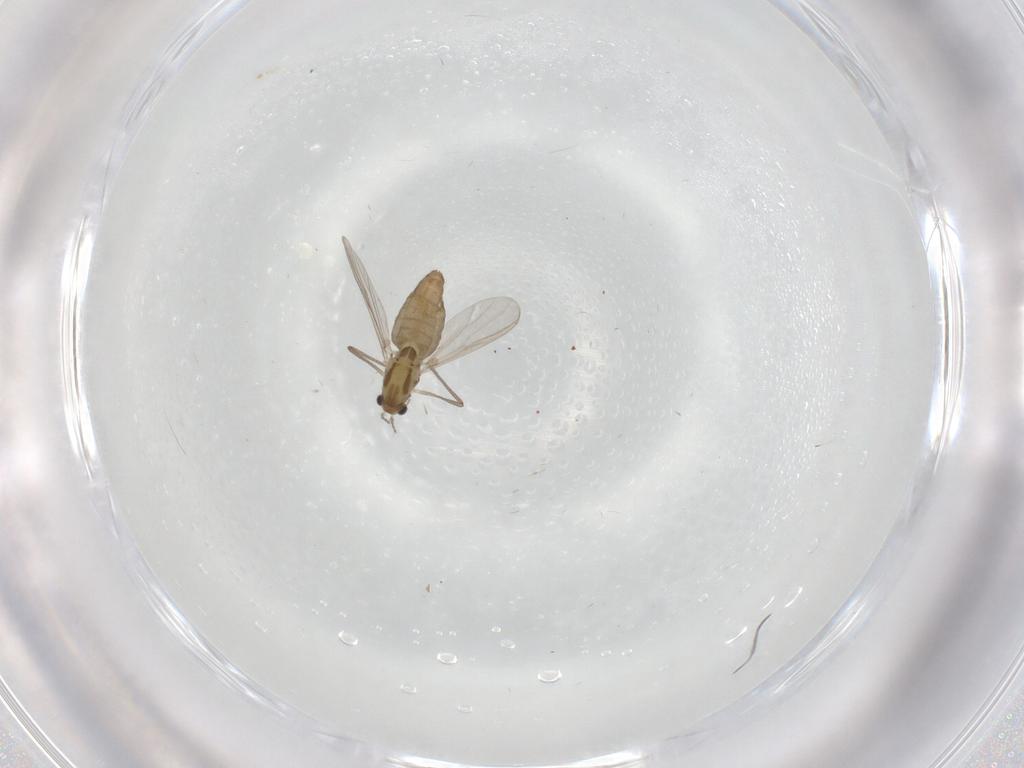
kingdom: Animalia
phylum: Arthropoda
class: Insecta
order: Diptera
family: Chironomidae
